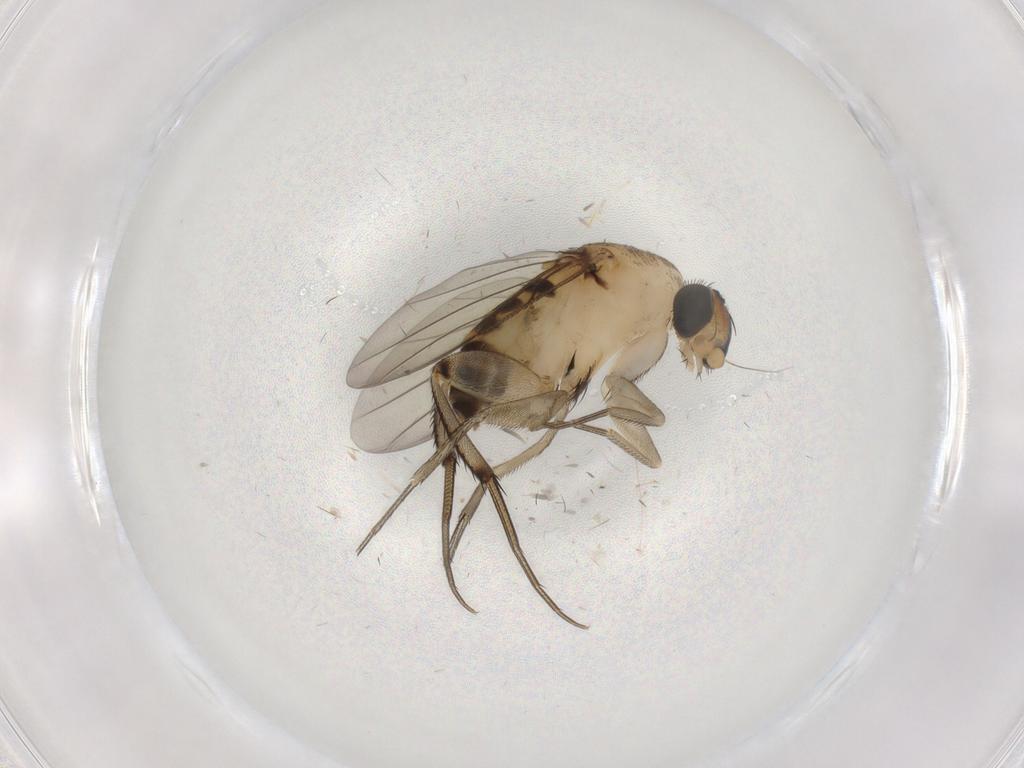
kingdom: Animalia
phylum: Arthropoda
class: Insecta
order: Diptera
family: Phoridae
